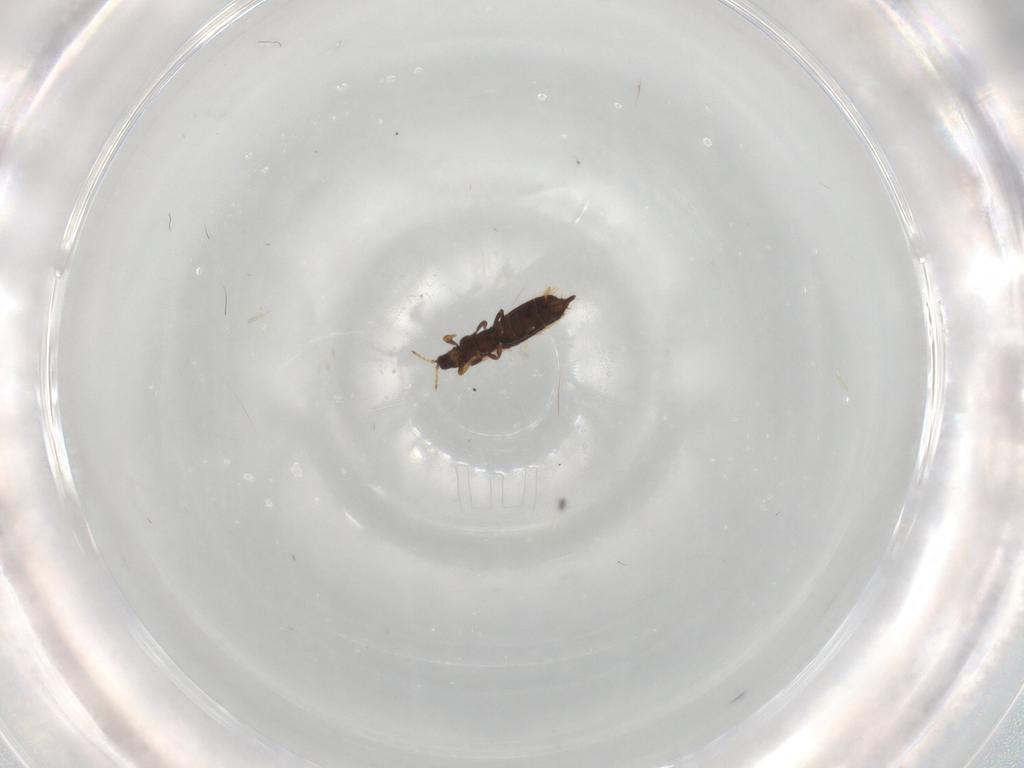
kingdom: Animalia
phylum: Arthropoda
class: Insecta
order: Thysanoptera
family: Thripidae
